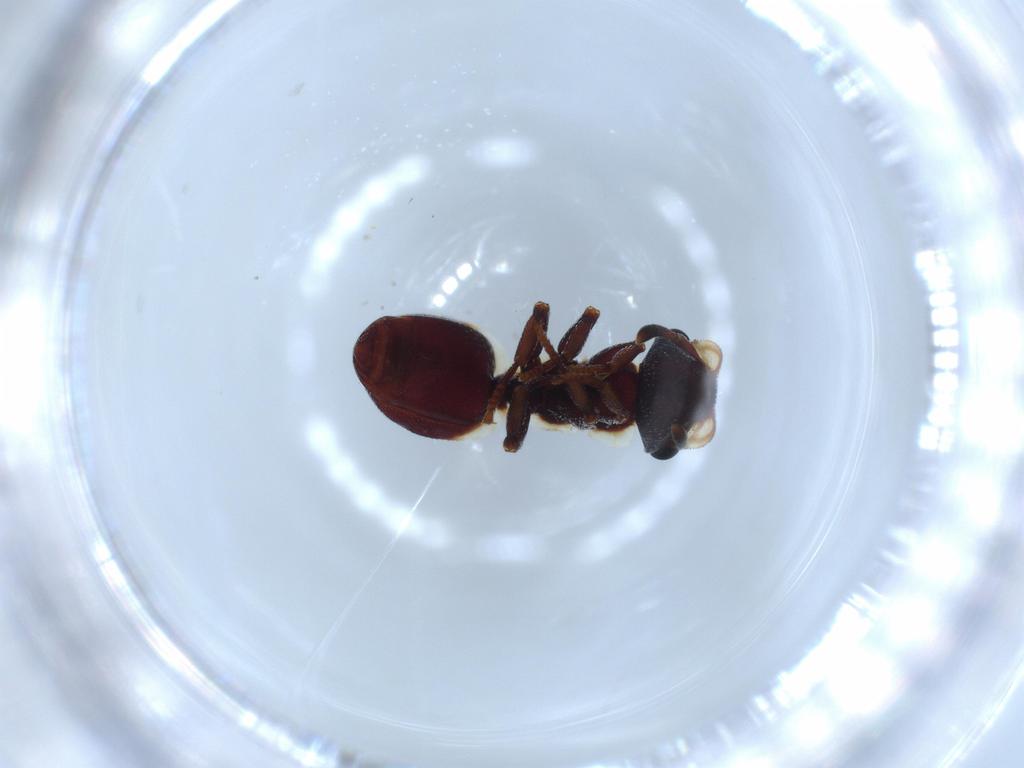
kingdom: Animalia
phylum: Arthropoda
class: Insecta
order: Hymenoptera
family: Formicidae
